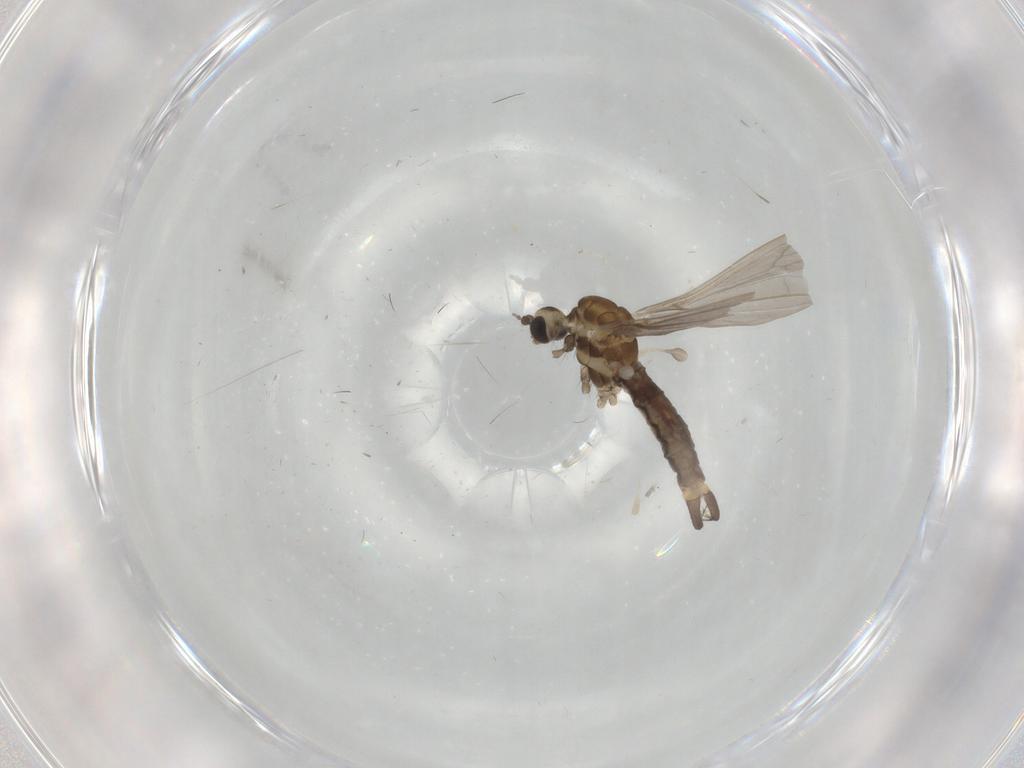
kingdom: Animalia
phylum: Arthropoda
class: Insecta
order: Diptera
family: Limoniidae
